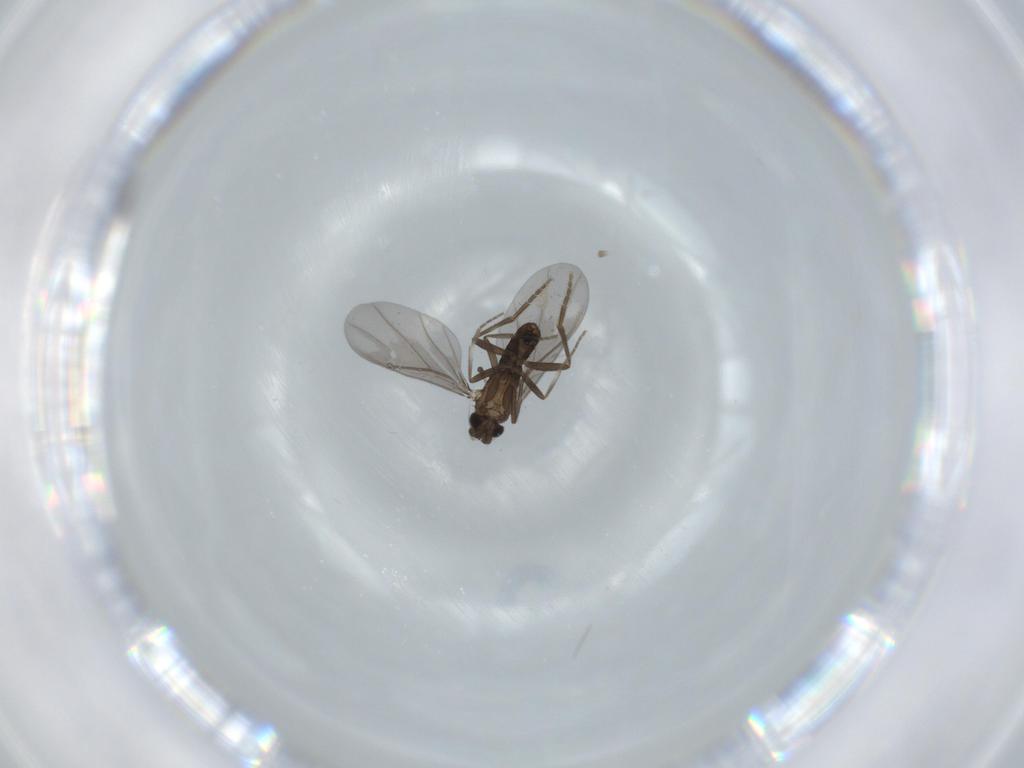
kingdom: Animalia
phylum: Arthropoda
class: Insecta
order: Diptera
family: Phoridae
